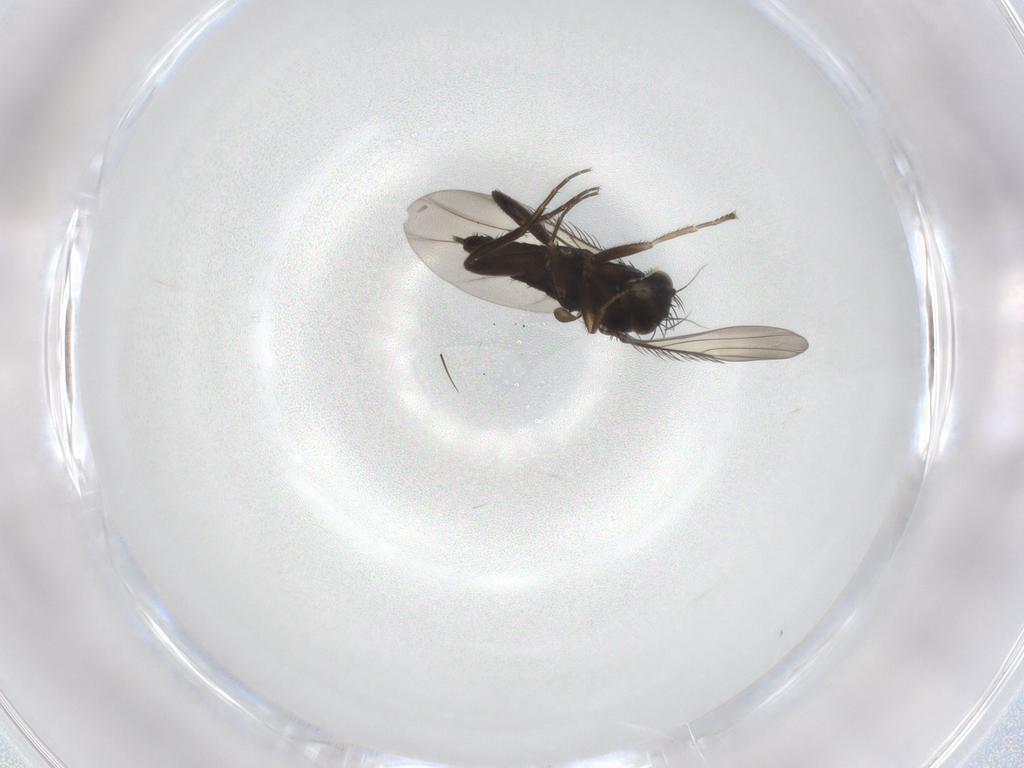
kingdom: Animalia
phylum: Arthropoda
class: Insecta
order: Diptera
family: Phoridae
